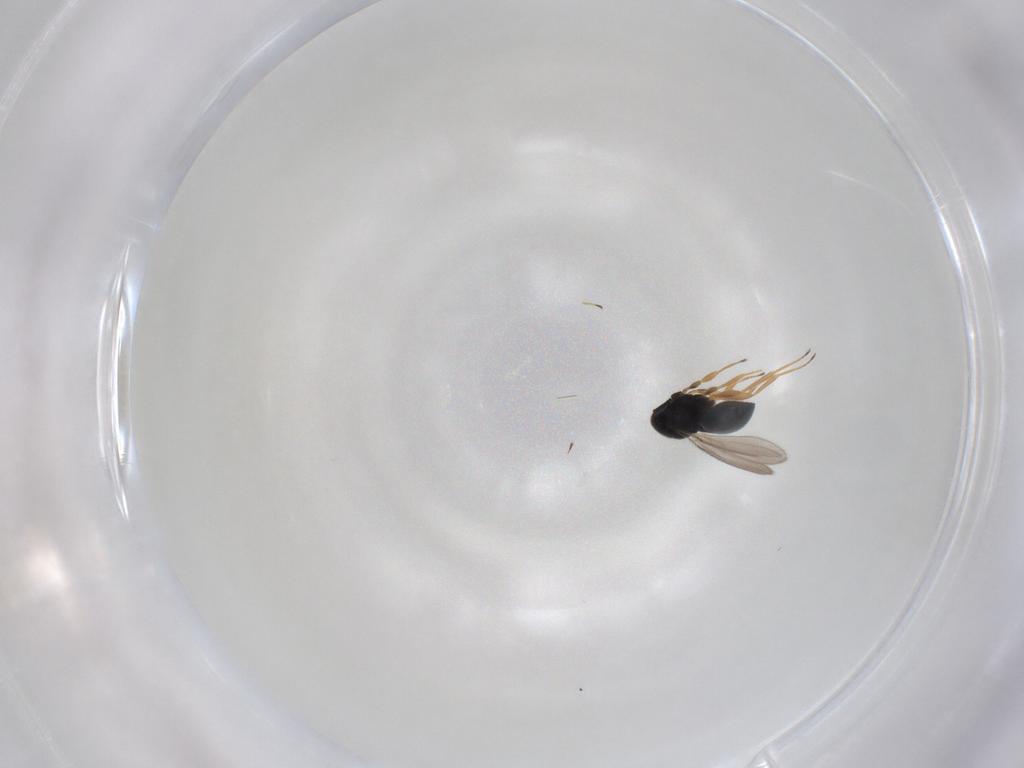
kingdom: Animalia
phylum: Arthropoda
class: Insecta
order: Hymenoptera
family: Scelionidae
